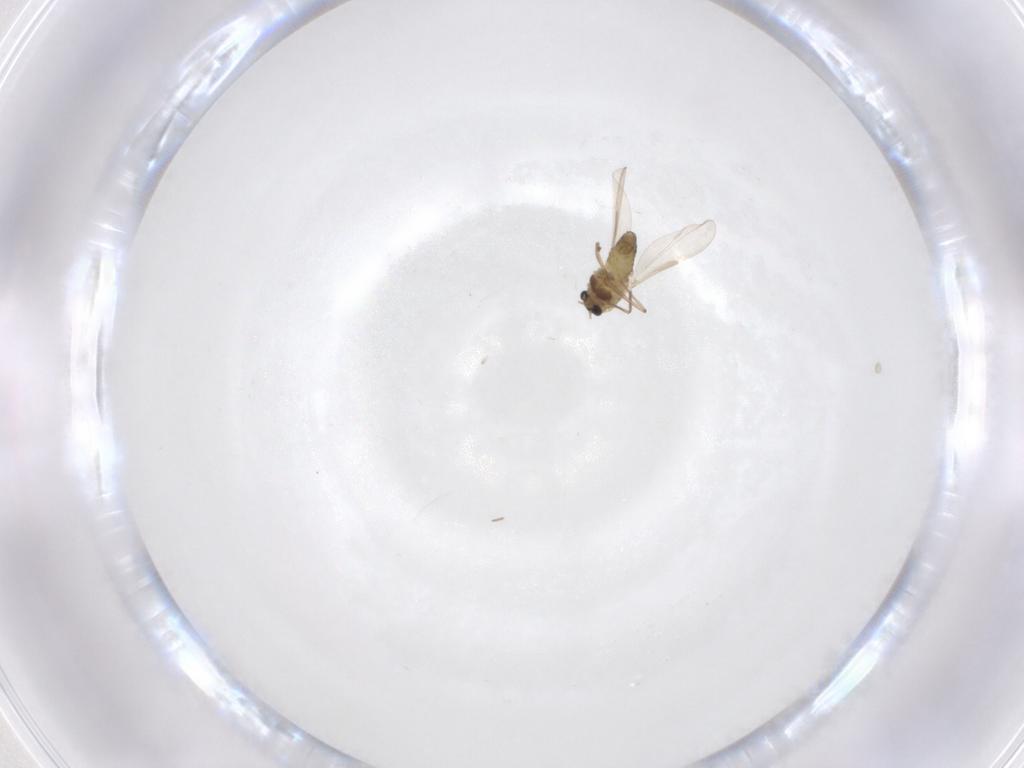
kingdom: Animalia
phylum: Arthropoda
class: Insecta
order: Diptera
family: Chironomidae
